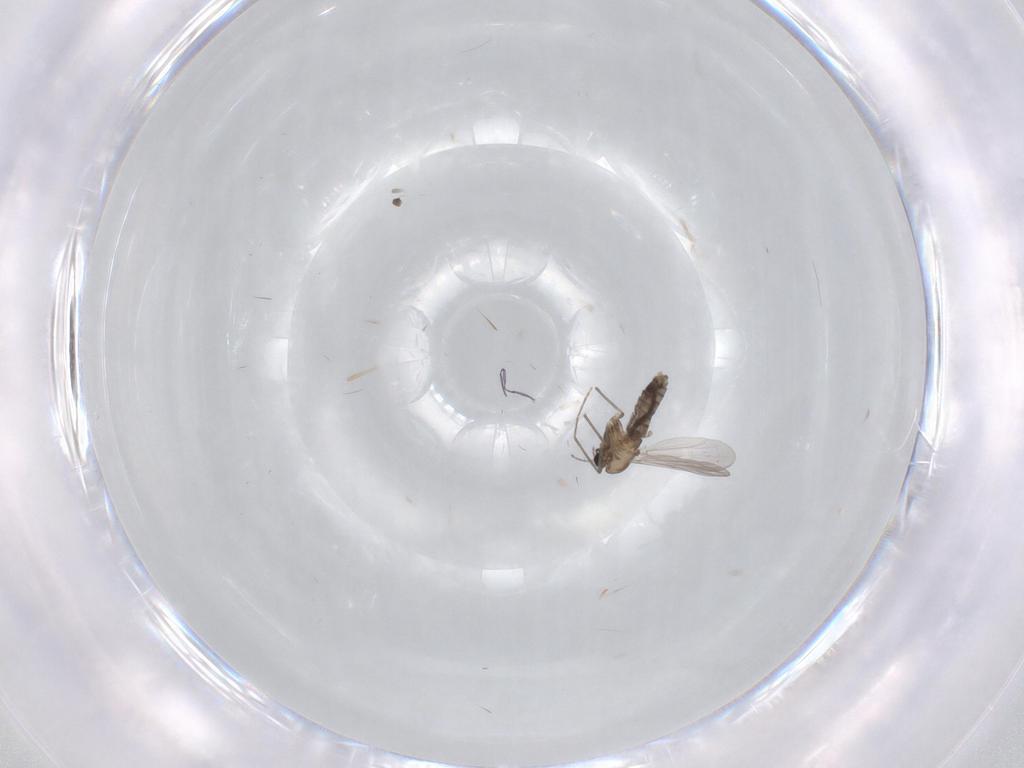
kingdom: Animalia
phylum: Arthropoda
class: Insecta
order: Diptera
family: Chironomidae
